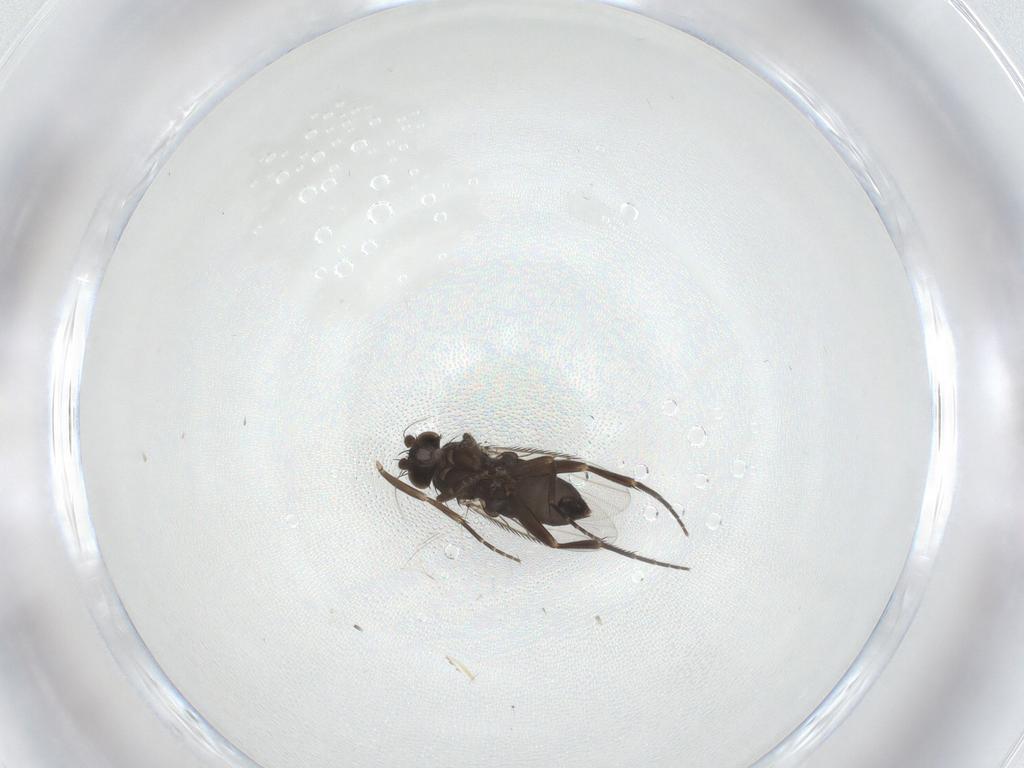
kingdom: Animalia
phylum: Arthropoda
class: Insecta
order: Diptera
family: Phoridae
